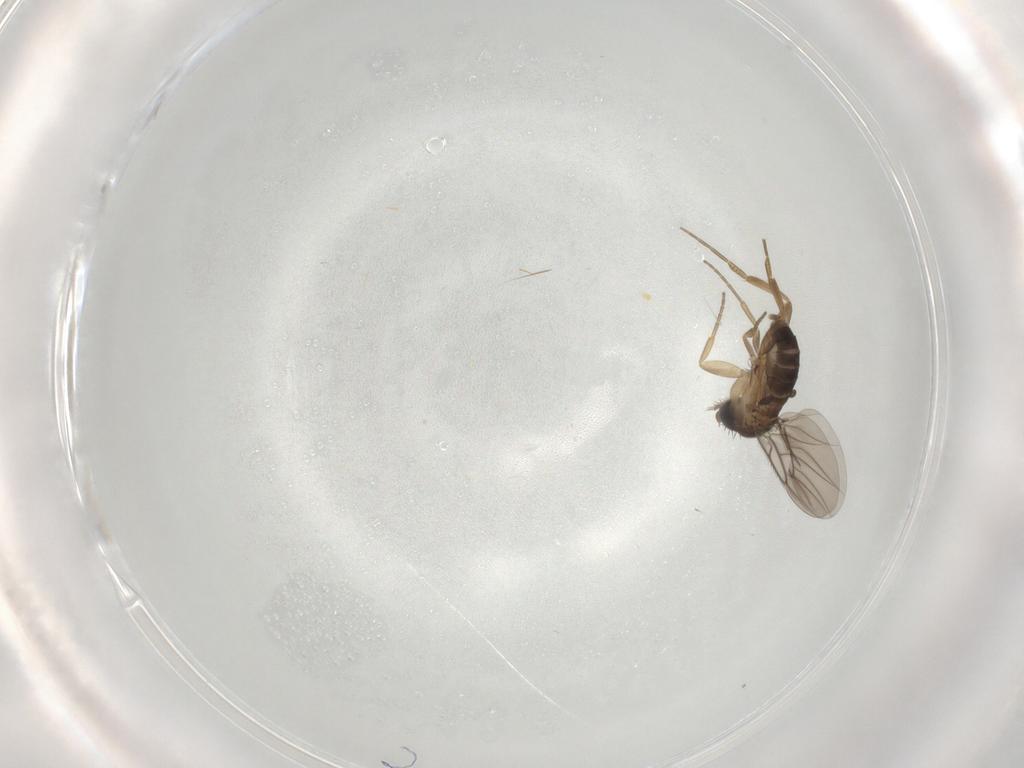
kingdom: Animalia
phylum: Arthropoda
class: Insecta
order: Diptera
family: Cecidomyiidae
